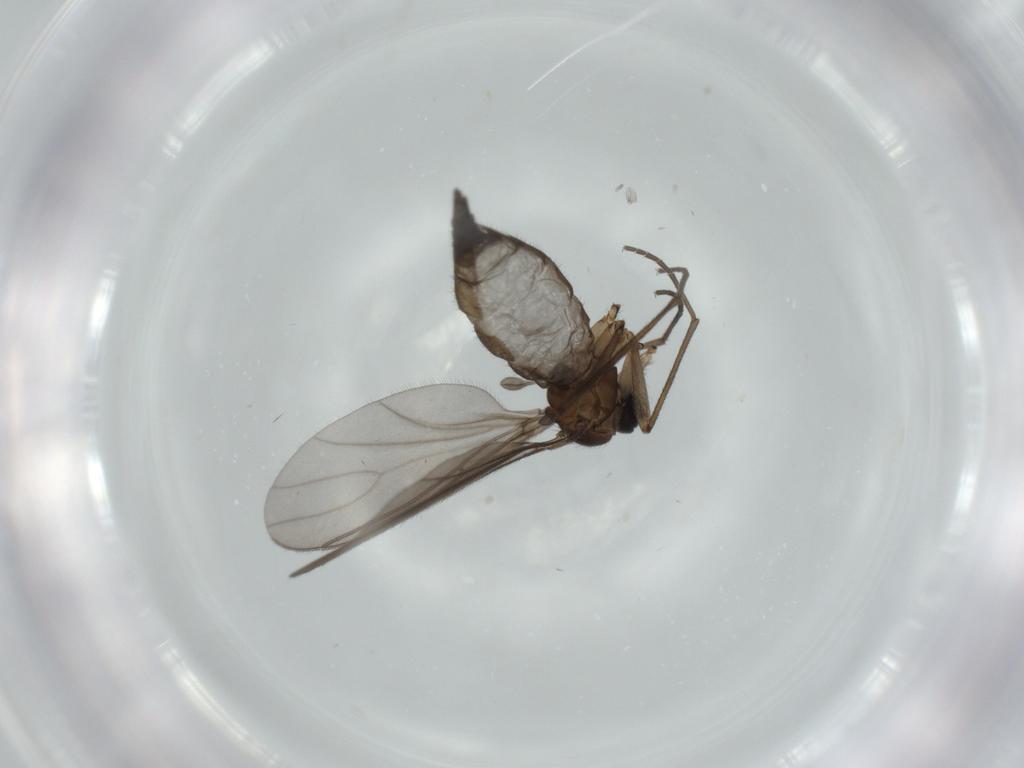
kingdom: Animalia
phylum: Arthropoda
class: Insecta
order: Diptera
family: Sciaridae
